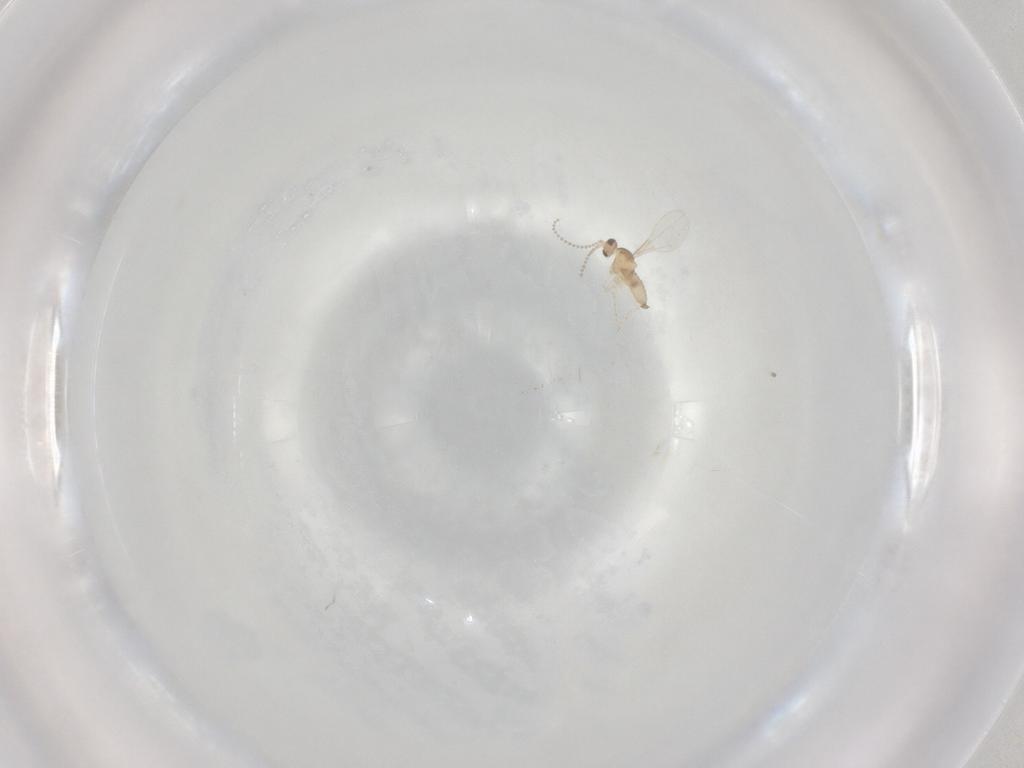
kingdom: Animalia
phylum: Arthropoda
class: Insecta
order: Diptera
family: Cecidomyiidae
